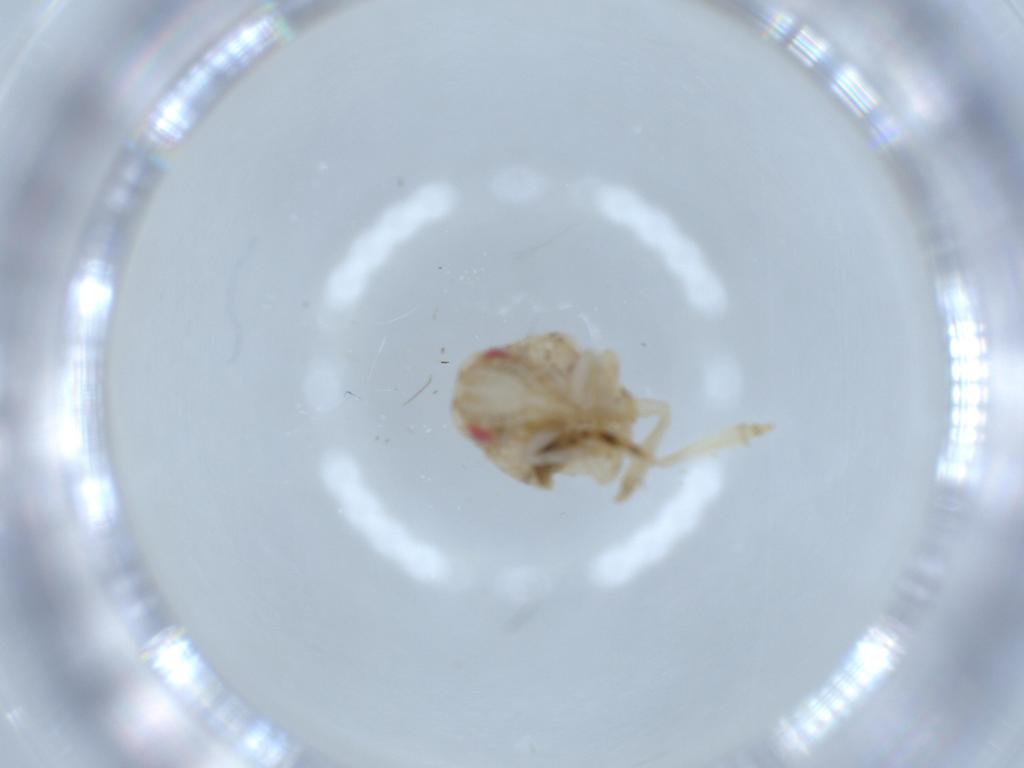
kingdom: Animalia
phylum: Arthropoda
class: Insecta
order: Hemiptera
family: Acanaloniidae
